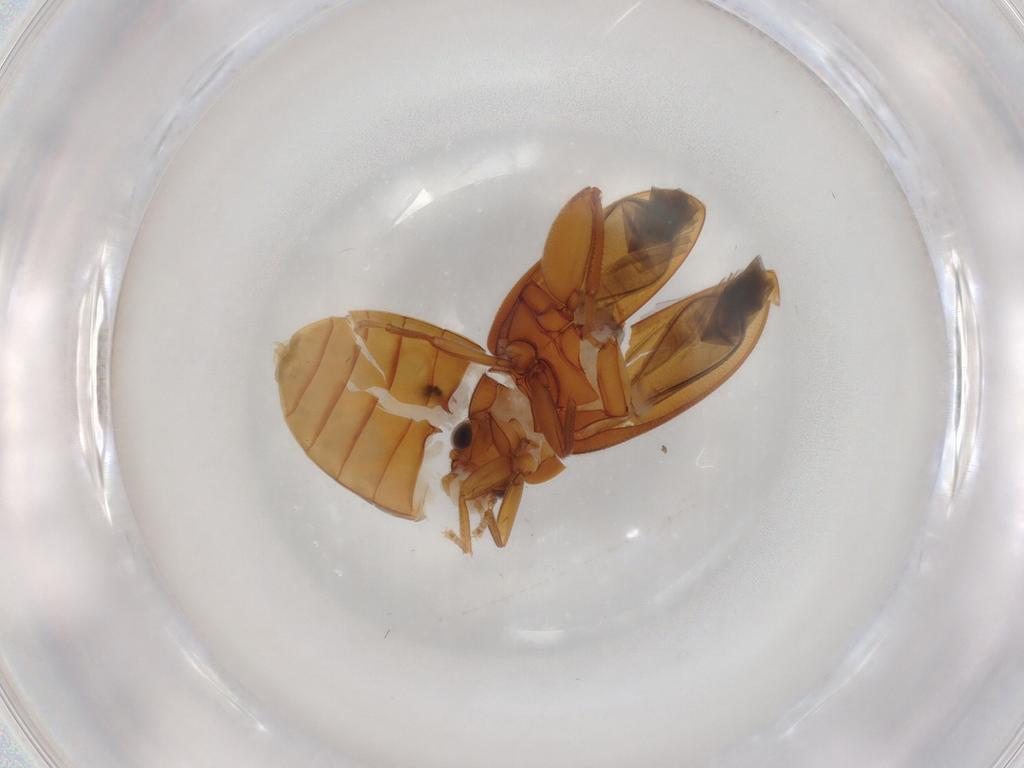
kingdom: Animalia
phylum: Arthropoda
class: Insecta
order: Coleoptera
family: Scirtidae
